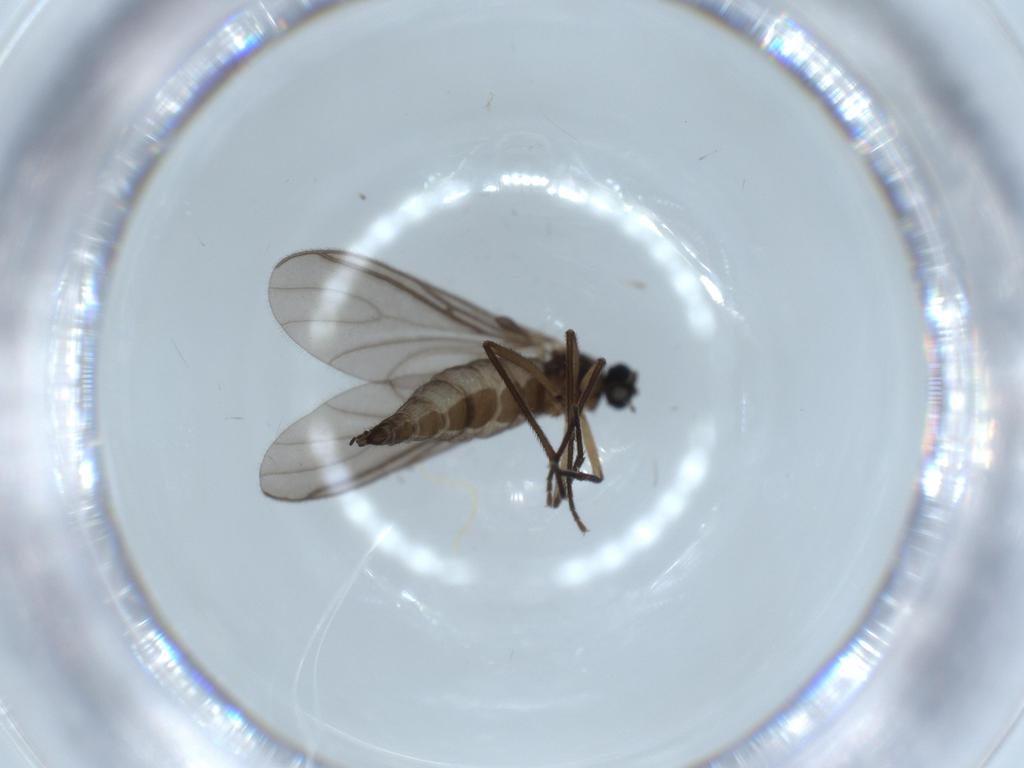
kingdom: Animalia
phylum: Arthropoda
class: Insecta
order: Diptera
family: Sciaridae
